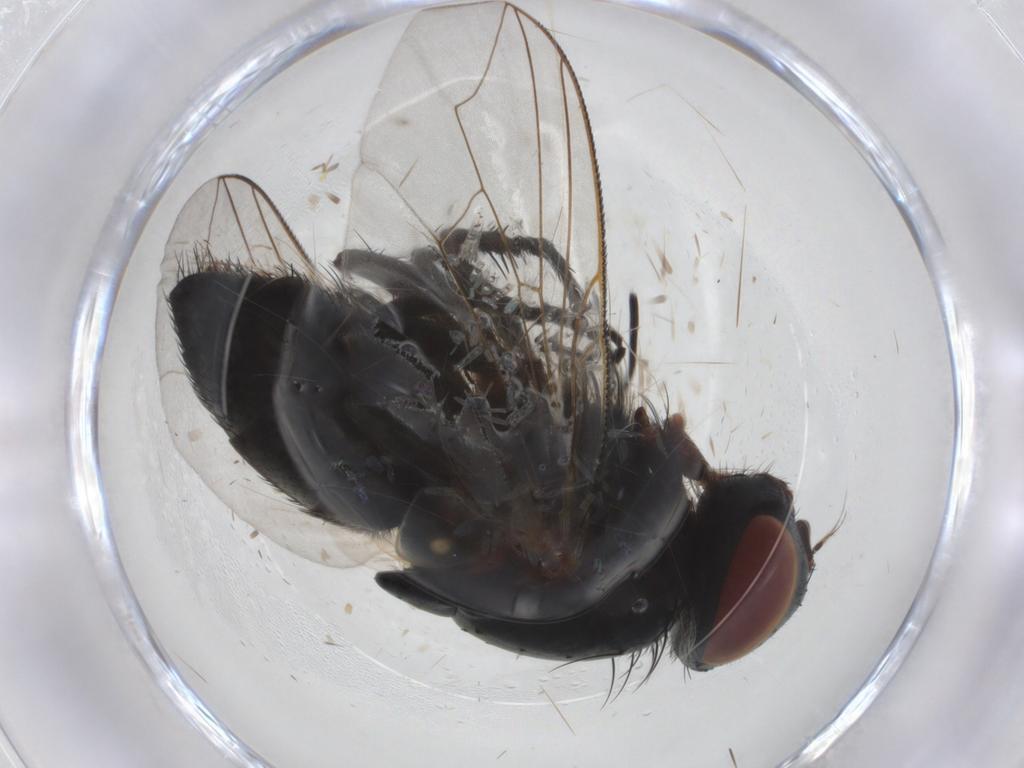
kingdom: Animalia
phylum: Arthropoda
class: Insecta
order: Diptera
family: Sarcophagidae
